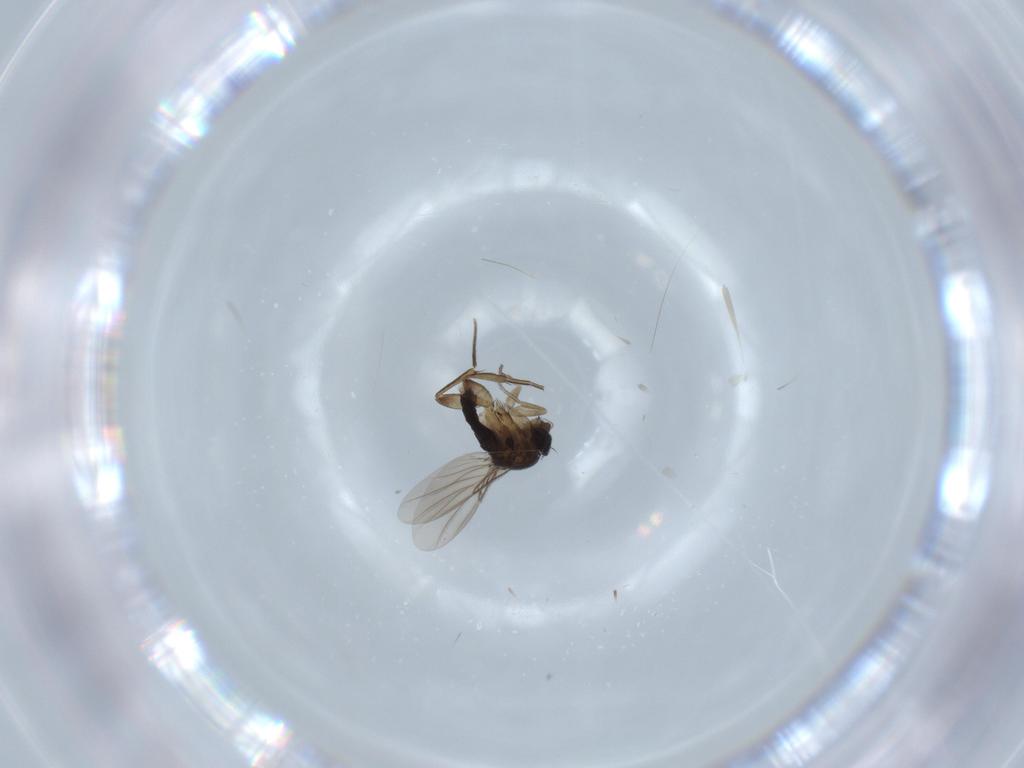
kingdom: Animalia
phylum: Arthropoda
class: Insecta
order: Diptera
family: Phoridae
